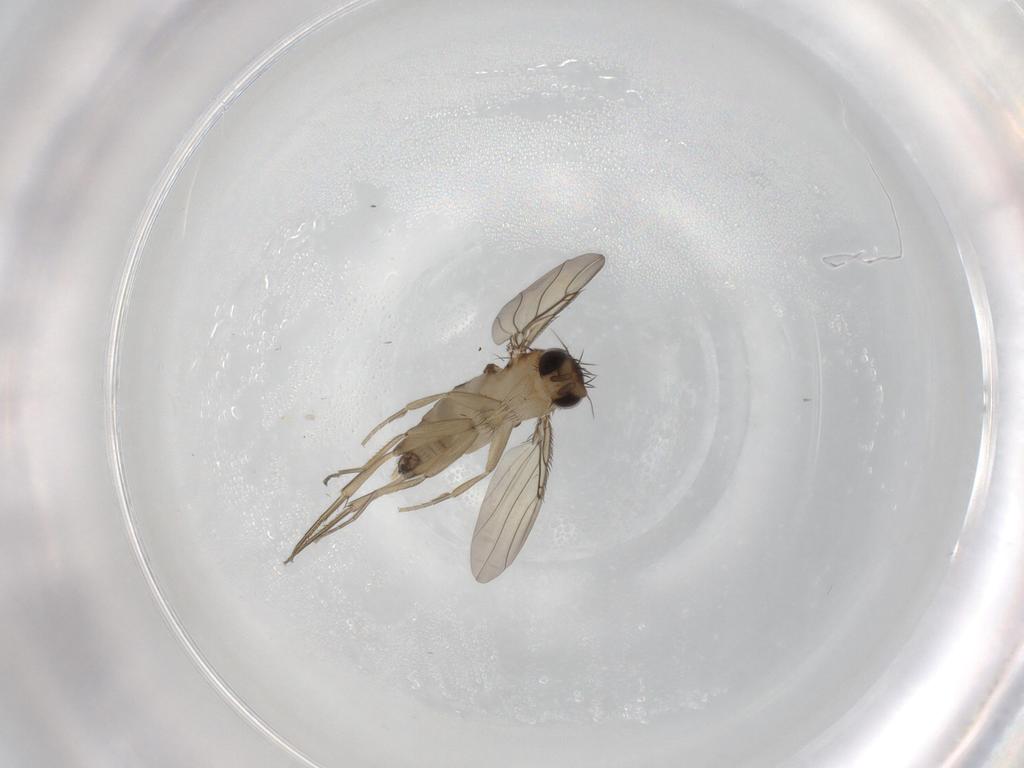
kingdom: Animalia
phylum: Arthropoda
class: Insecta
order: Diptera
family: Phoridae
